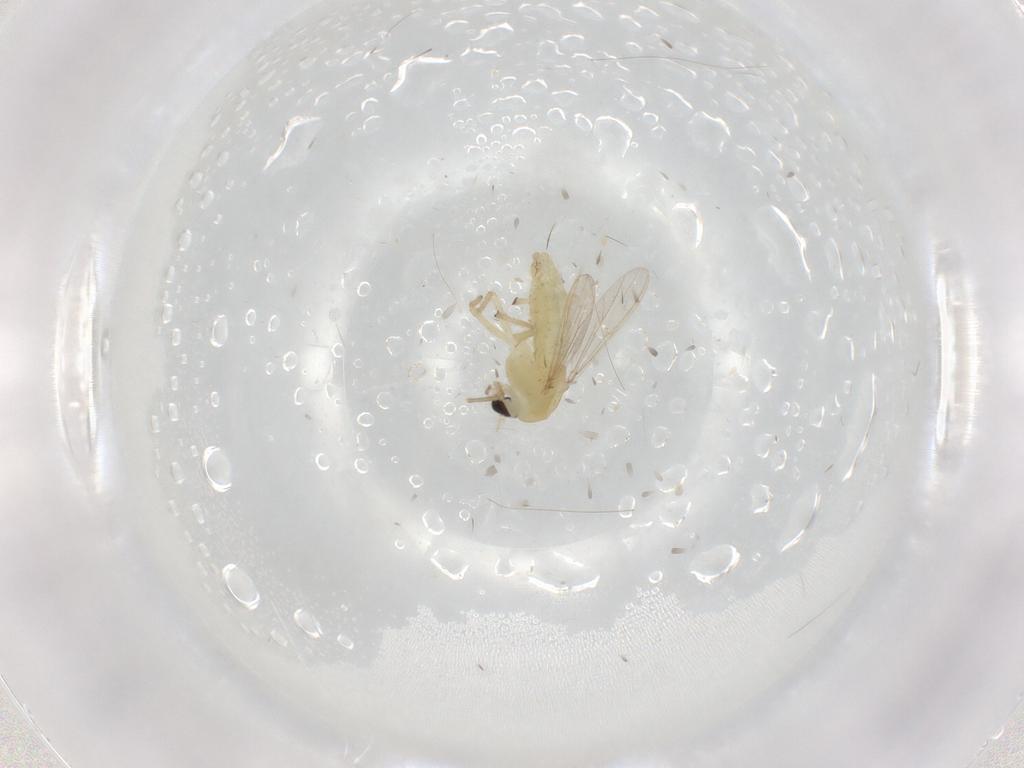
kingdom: Animalia
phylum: Arthropoda
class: Insecta
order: Diptera
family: Chironomidae
